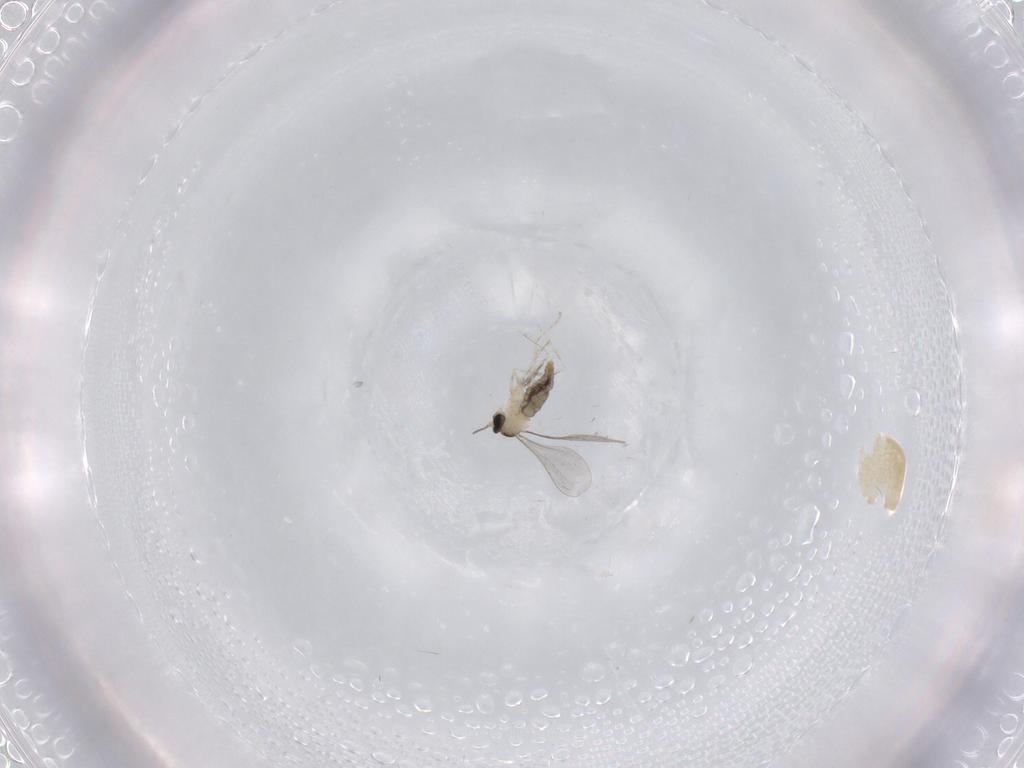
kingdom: Animalia
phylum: Arthropoda
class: Insecta
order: Diptera
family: Cecidomyiidae
